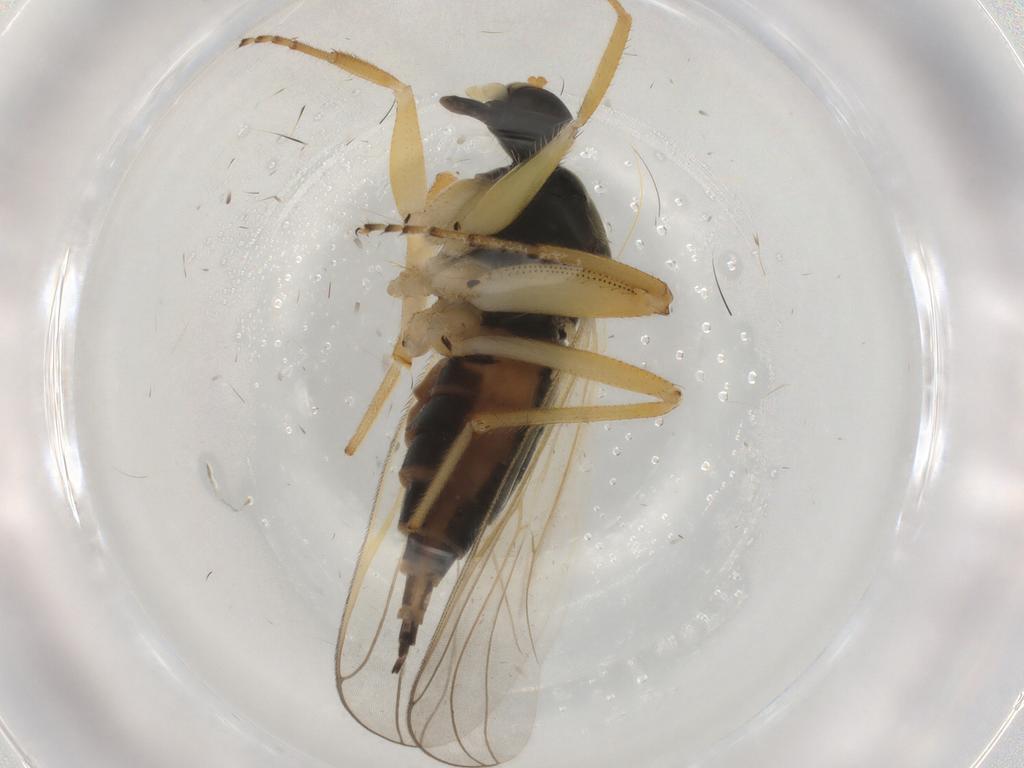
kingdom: Animalia
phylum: Arthropoda
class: Insecta
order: Diptera
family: Hybotidae
